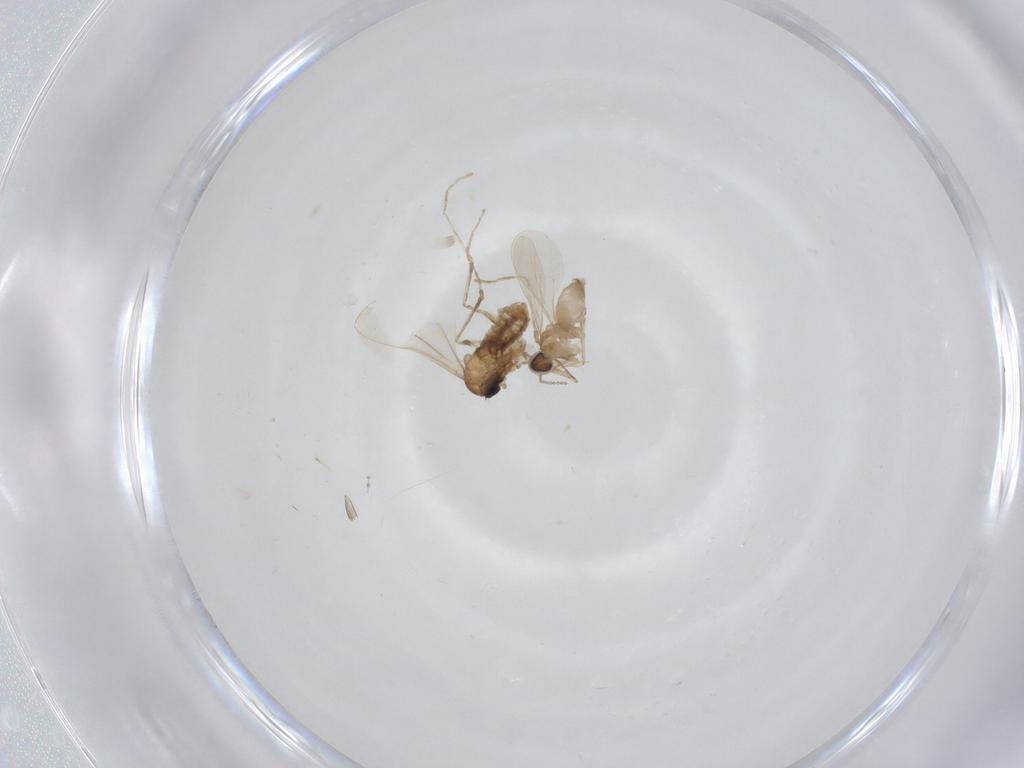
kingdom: Animalia
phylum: Arthropoda
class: Insecta
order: Diptera
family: Cecidomyiidae
